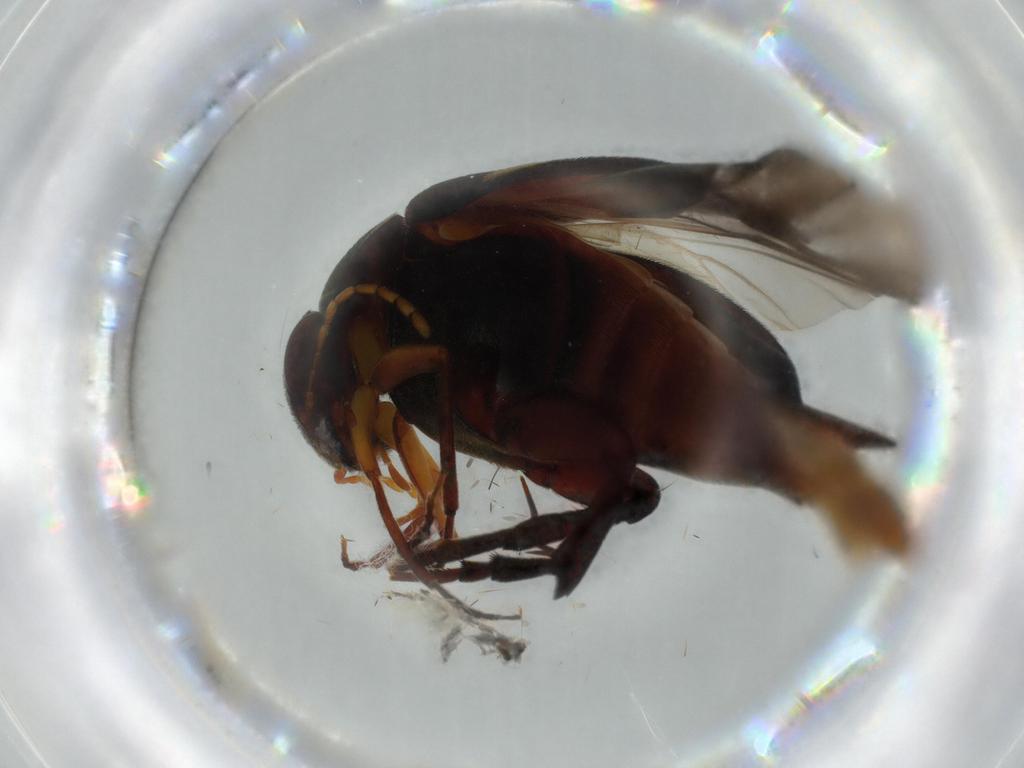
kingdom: Animalia
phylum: Arthropoda
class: Insecta
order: Coleoptera
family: Mordellidae
